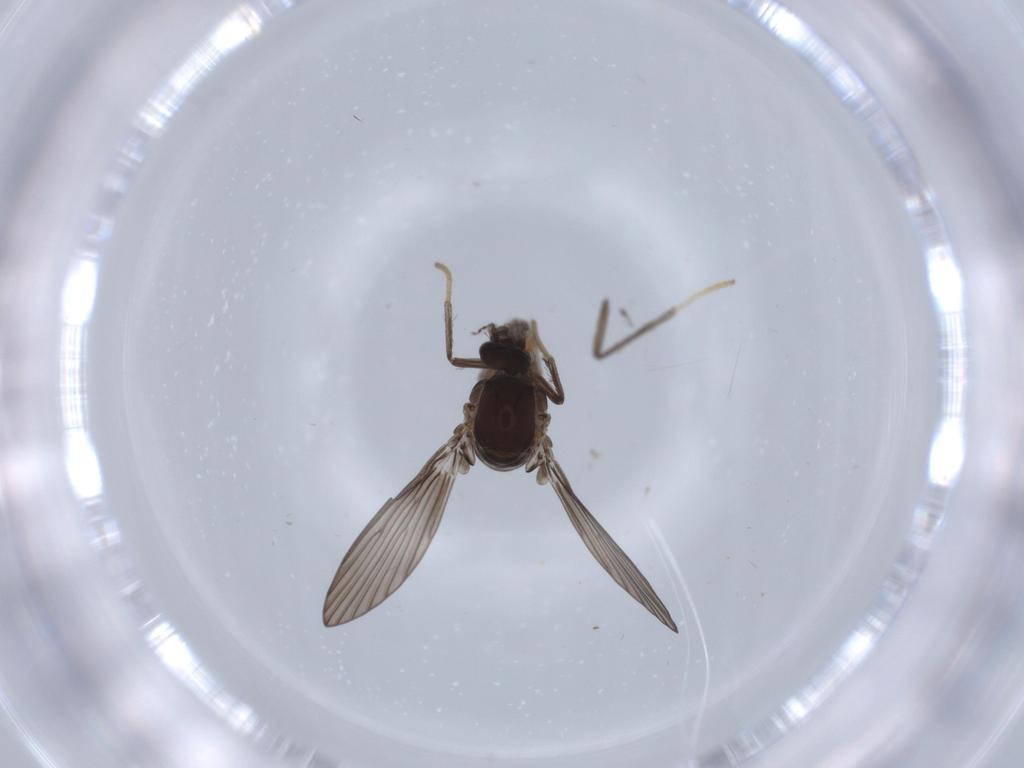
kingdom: Animalia
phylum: Arthropoda
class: Insecta
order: Diptera
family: Psychodidae
